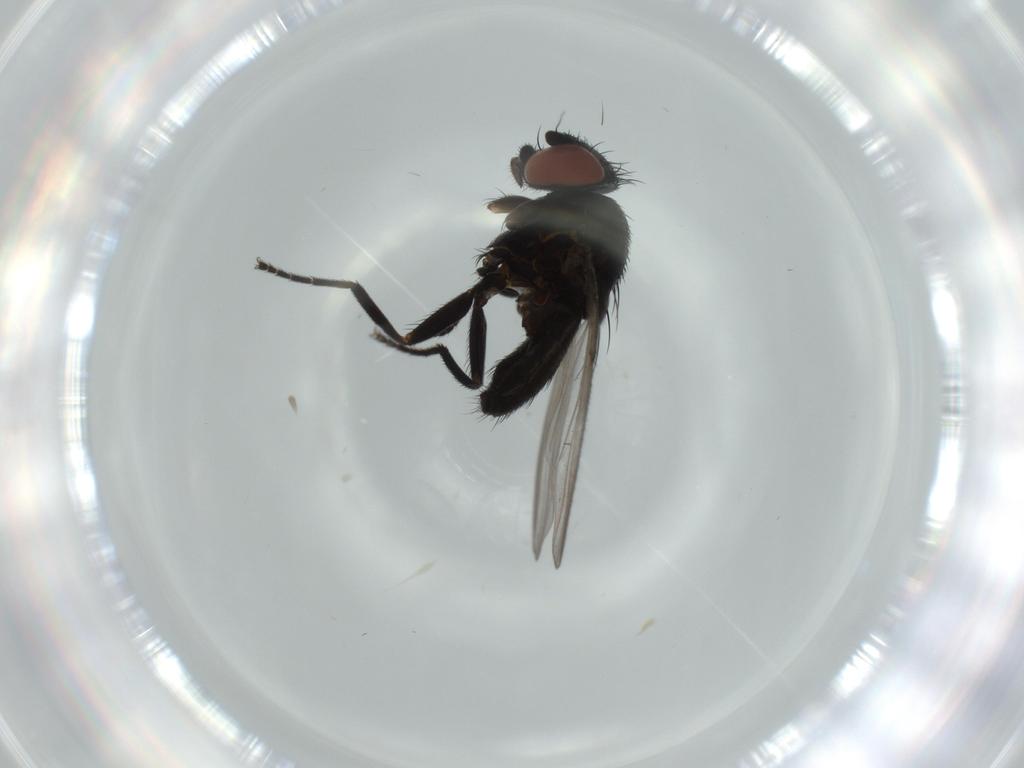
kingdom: Animalia
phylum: Arthropoda
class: Insecta
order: Diptera
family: Milichiidae
